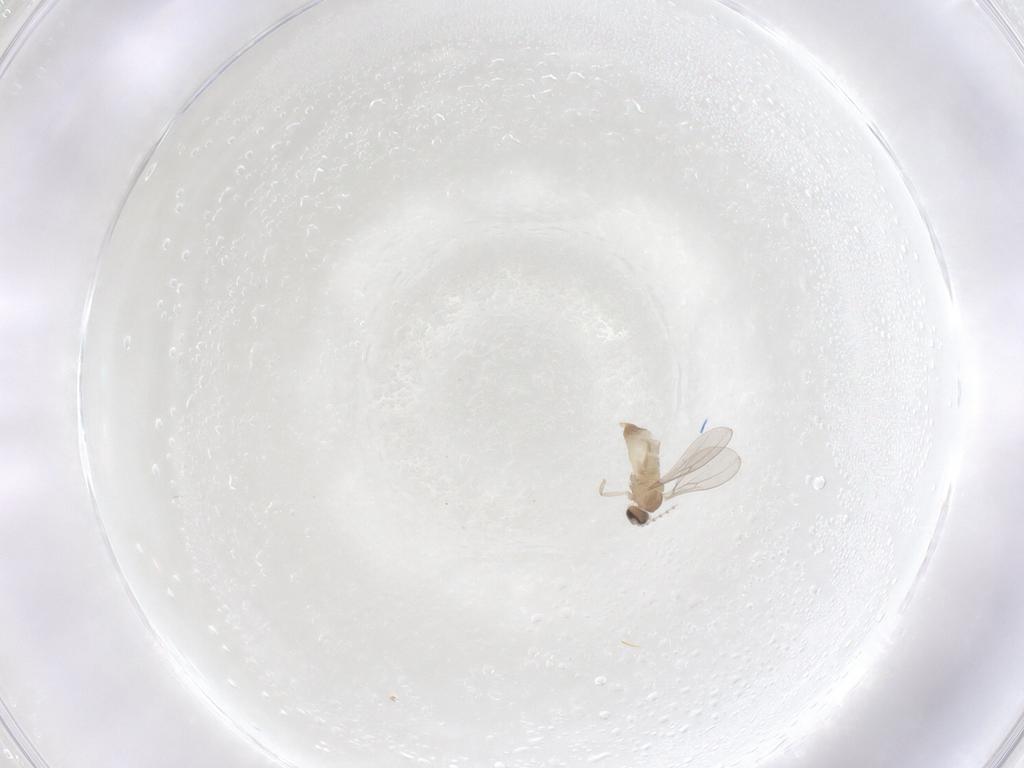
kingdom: Animalia
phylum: Arthropoda
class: Insecta
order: Diptera
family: Cecidomyiidae
